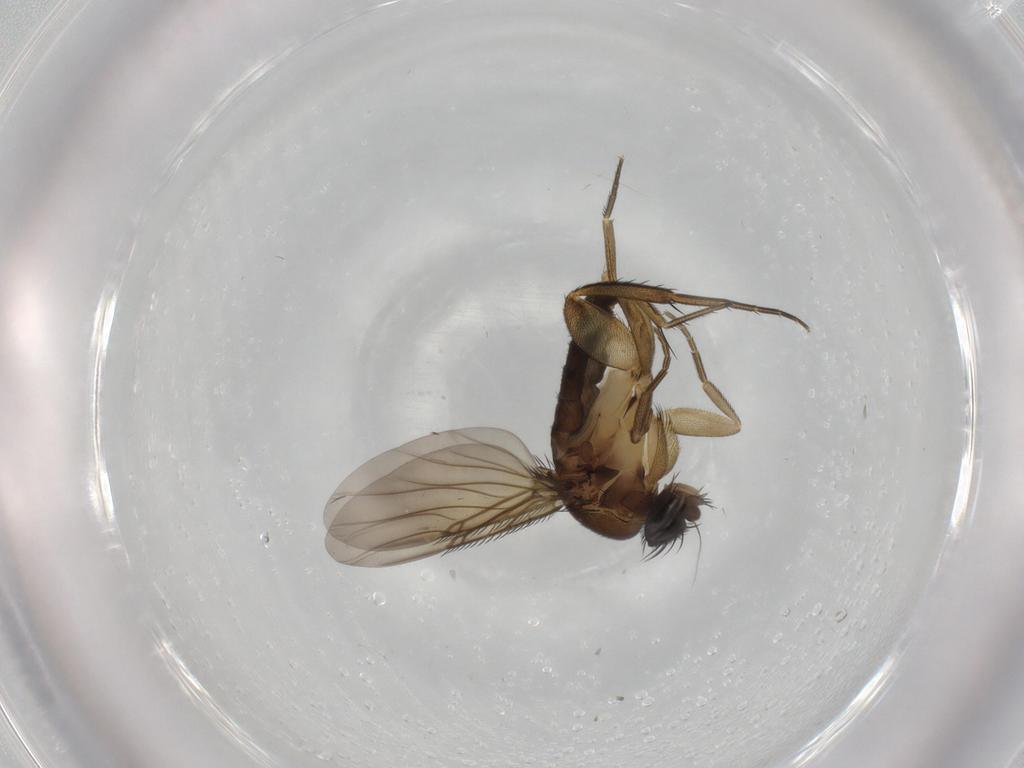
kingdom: Animalia
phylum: Arthropoda
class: Insecta
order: Diptera
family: Phoridae
